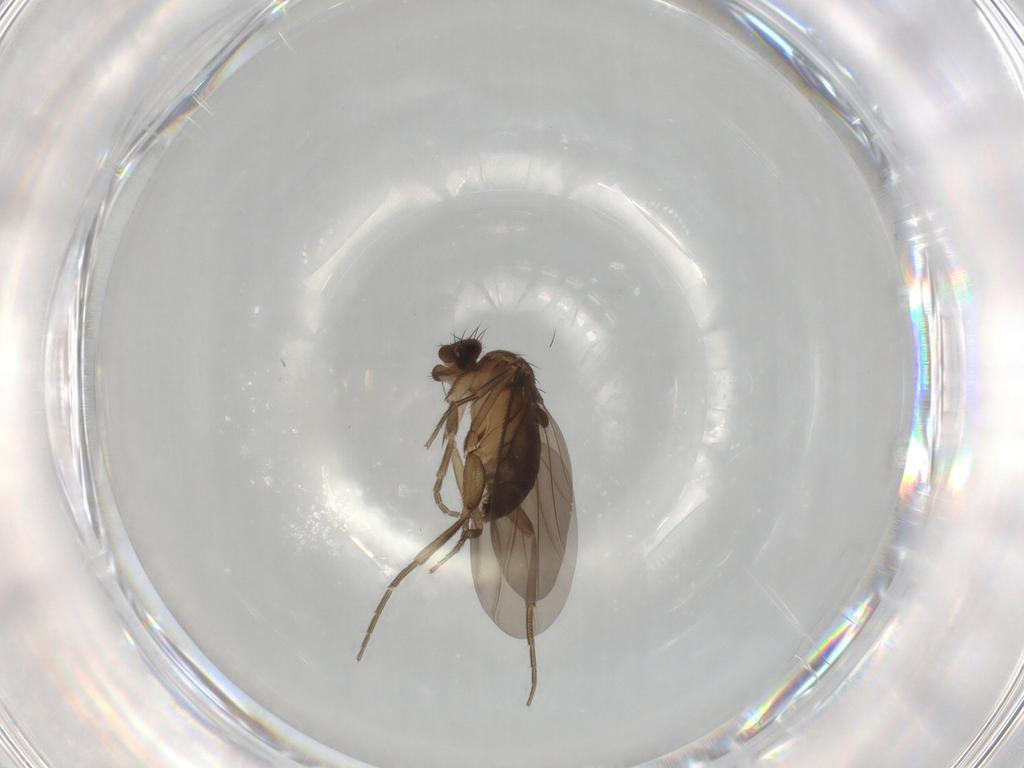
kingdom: Animalia
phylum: Arthropoda
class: Insecta
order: Diptera
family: Phoridae
